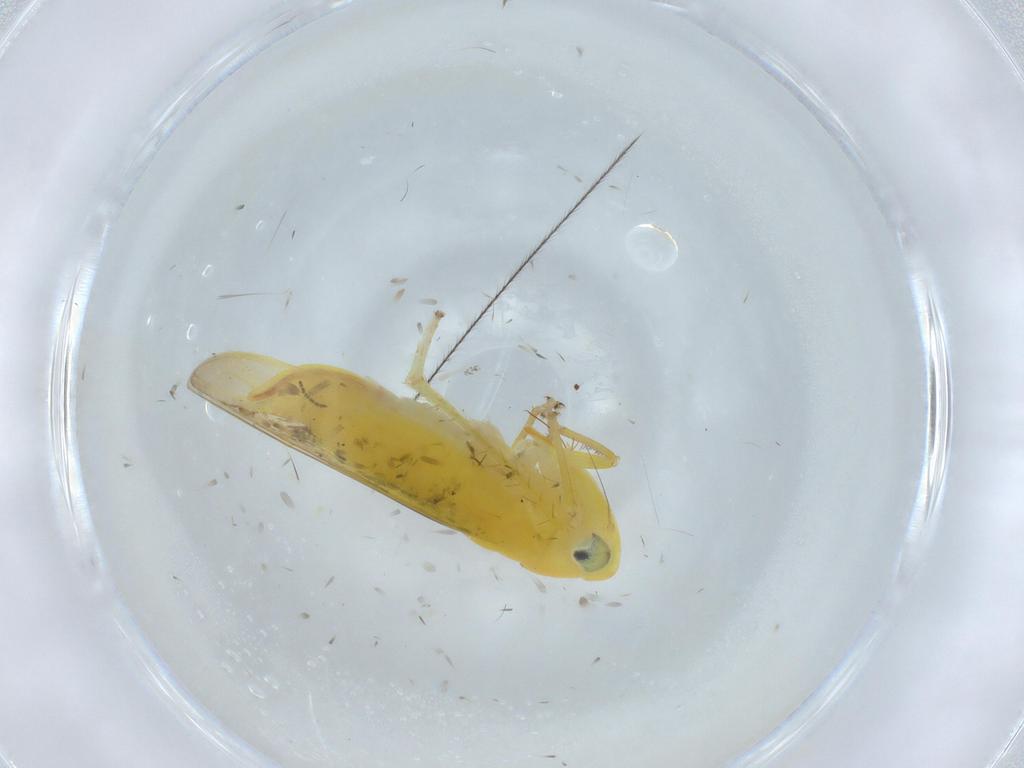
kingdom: Animalia
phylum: Arthropoda
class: Insecta
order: Hemiptera
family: Cicadellidae
